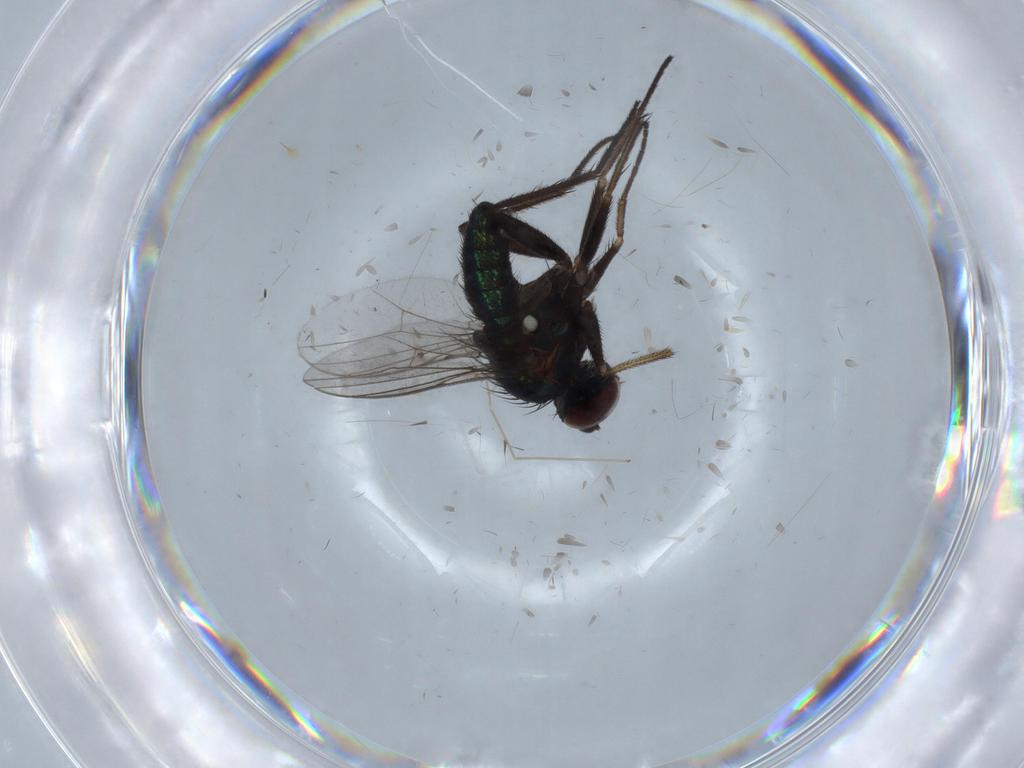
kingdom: Animalia
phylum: Arthropoda
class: Insecta
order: Diptera
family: Dolichopodidae
